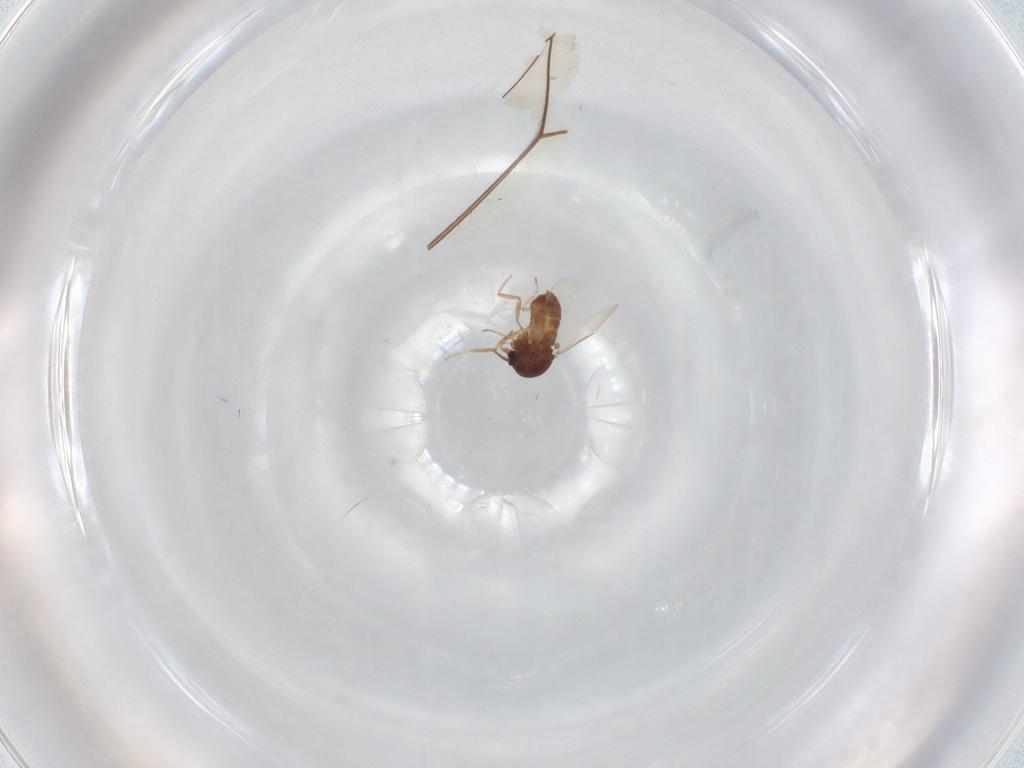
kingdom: Animalia
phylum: Arthropoda
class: Insecta
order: Diptera
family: Ceratopogonidae
